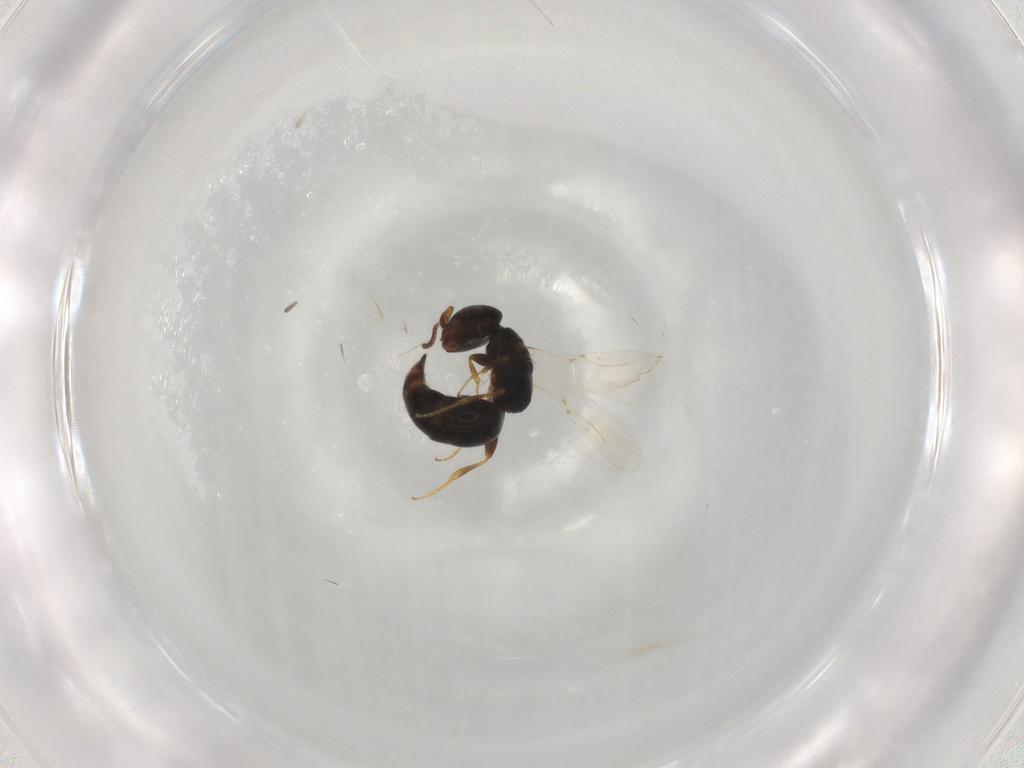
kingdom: Animalia
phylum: Arthropoda
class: Insecta
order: Hymenoptera
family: Bethylidae
